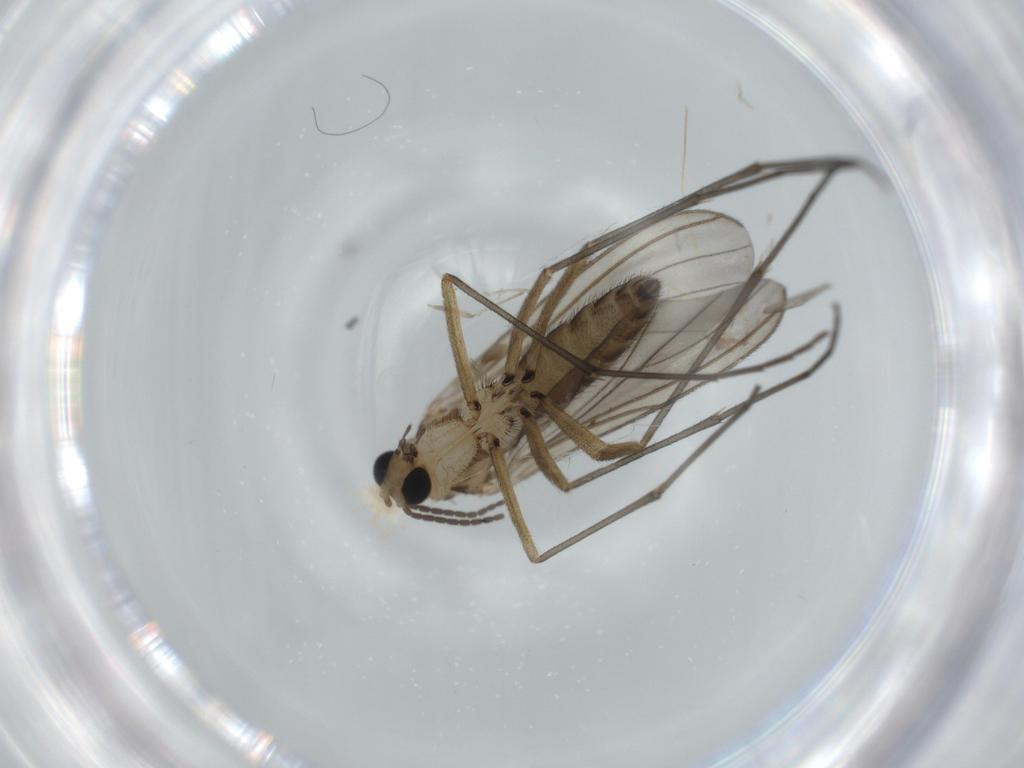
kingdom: Animalia
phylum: Arthropoda
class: Insecta
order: Diptera
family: Sciaridae
